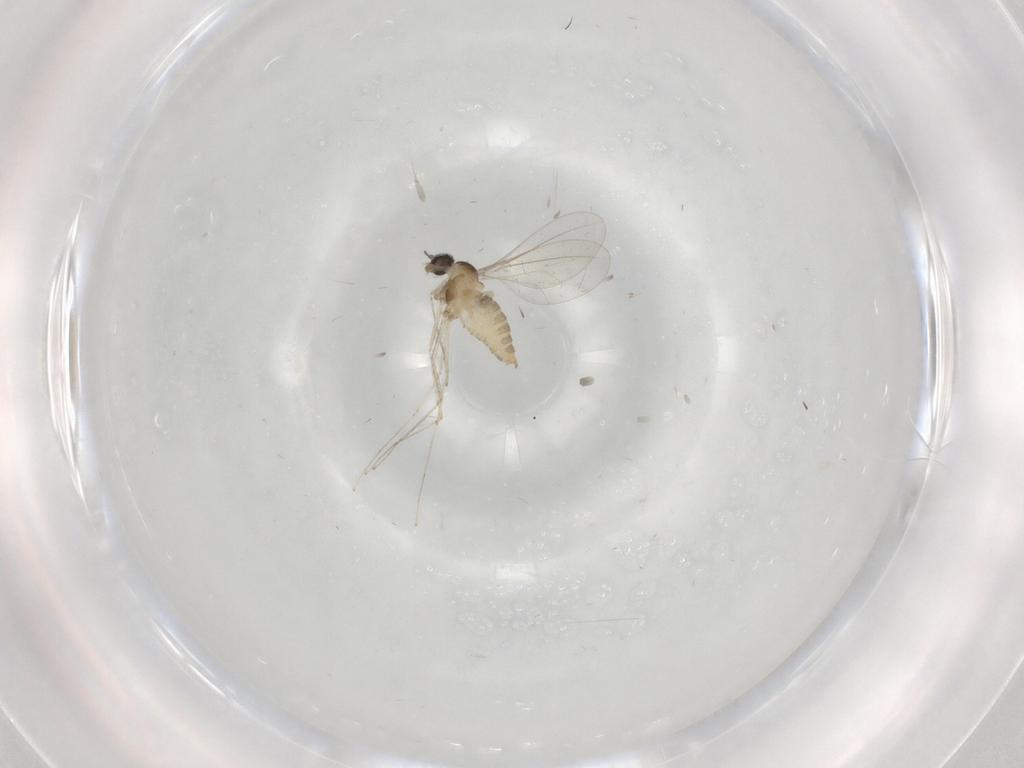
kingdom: Animalia
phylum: Arthropoda
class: Insecta
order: Diptera
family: Cecidomyiidae
